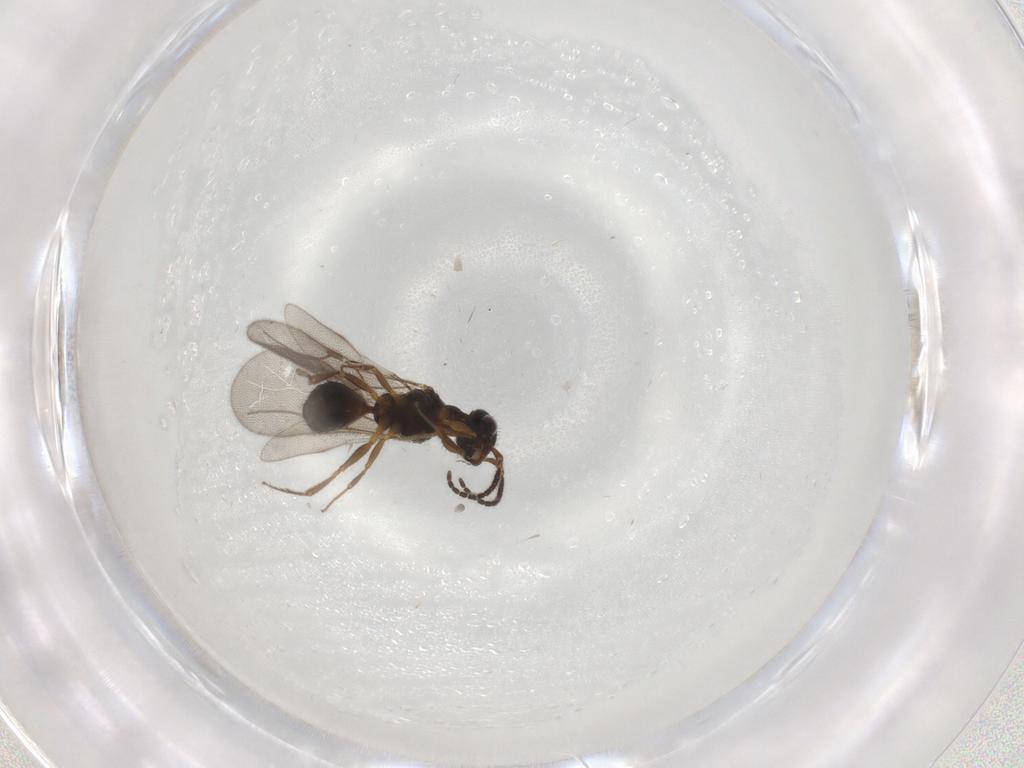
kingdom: Animalia
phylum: Arthropoda
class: Insecta
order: Hymenoptera
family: Bethylidae
